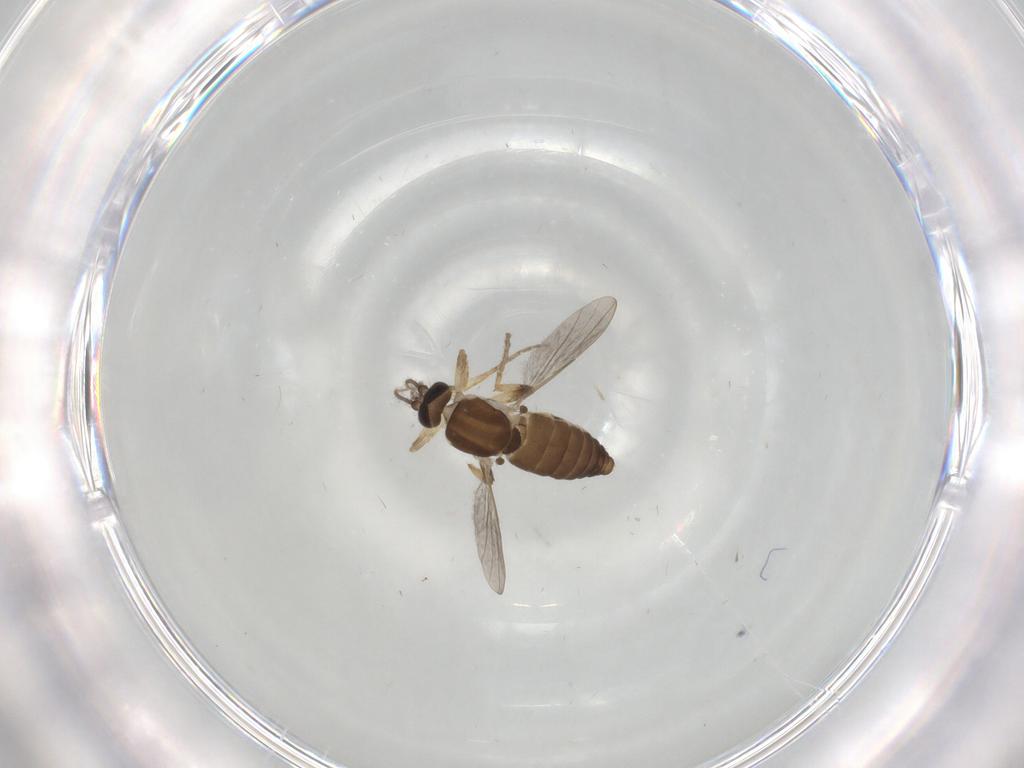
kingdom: Animalia
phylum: Arthropoda
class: Insecta
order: Diptera
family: Ceratopogonidae
